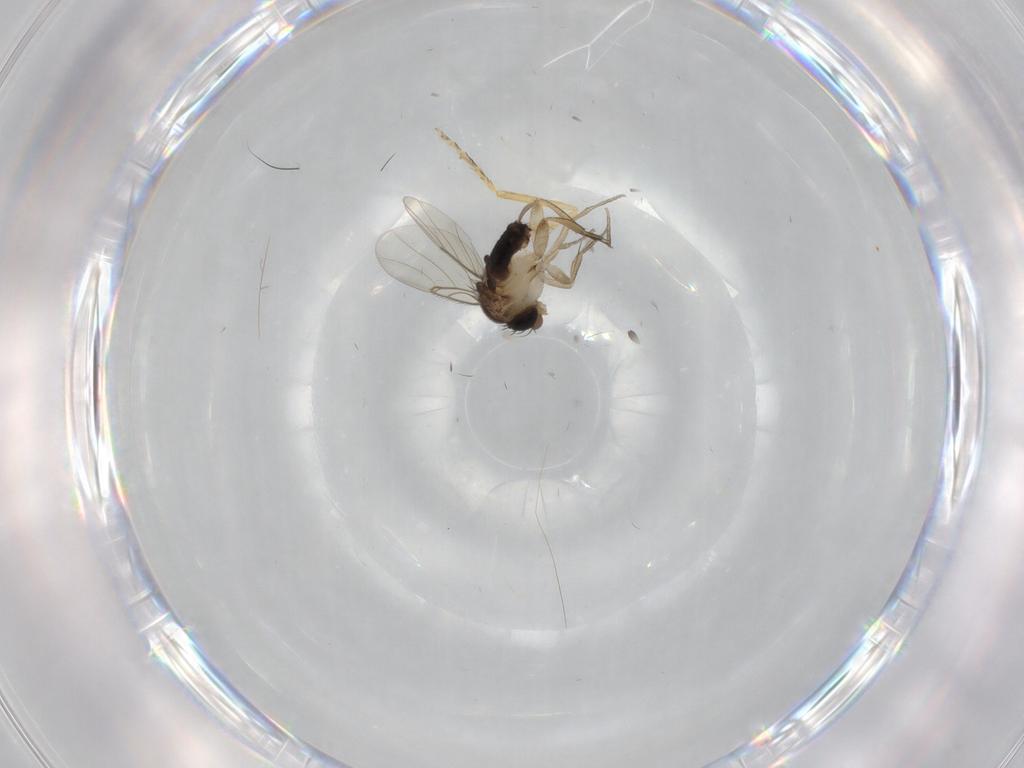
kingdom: Animalia
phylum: Arthropoda
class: Insecta
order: Diptera
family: Ceratopogonidae
